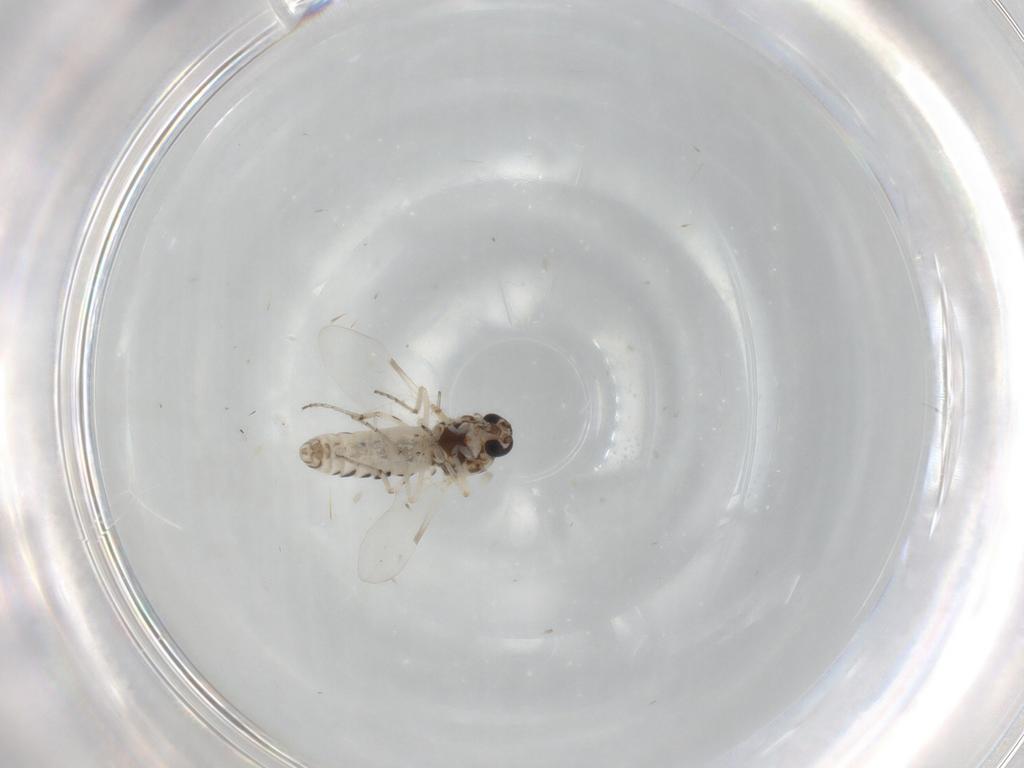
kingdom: Animalia
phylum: Arthropoda
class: Insecta
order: Diptera
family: Ceratopogonidae
